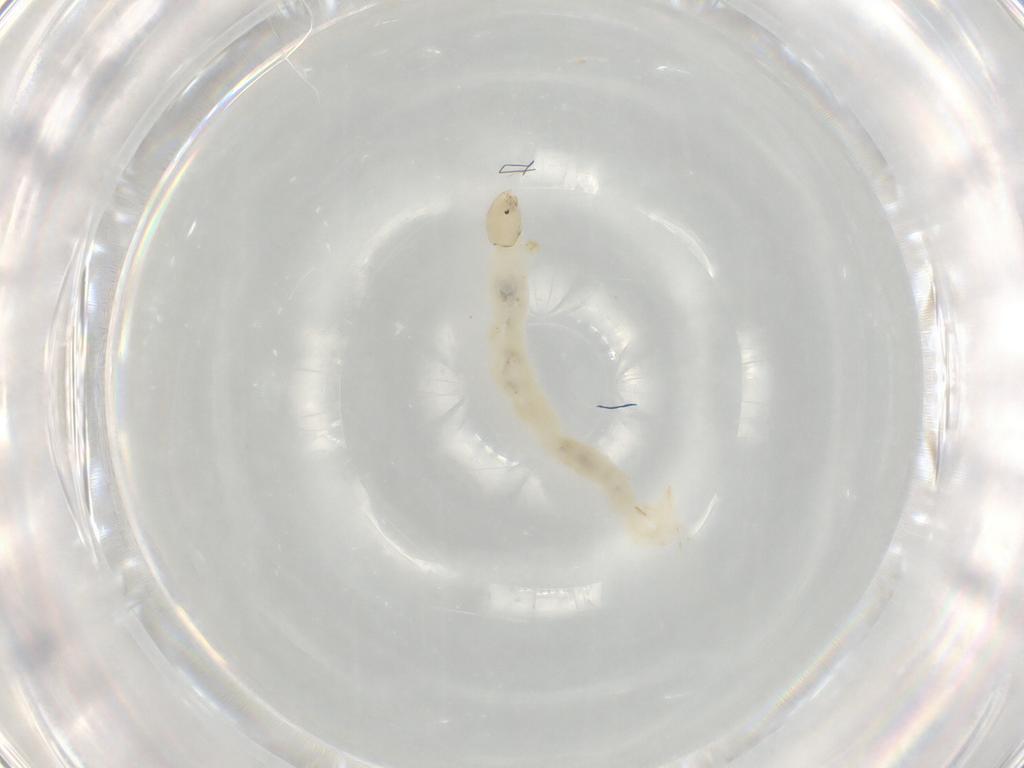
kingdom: Animalia
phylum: Arthropoda
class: Insecta
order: Diptera
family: Chironomidae
